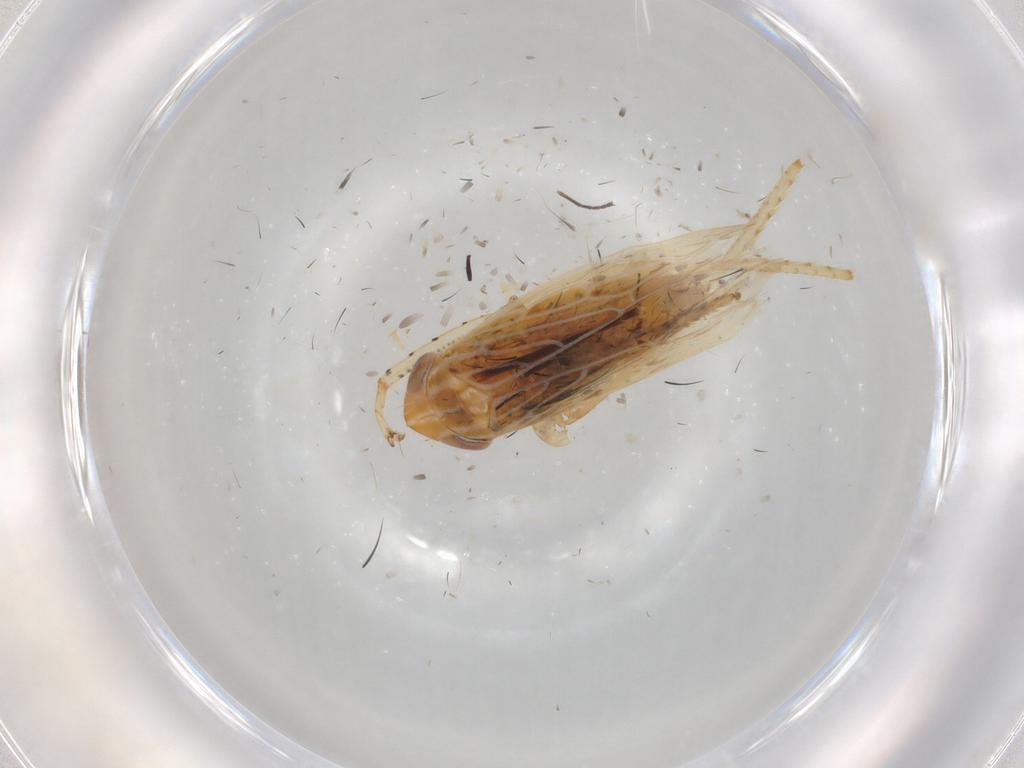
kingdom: Animalia
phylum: Arthropoda
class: Insecta
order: Hemiptera
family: Cicadellidae
